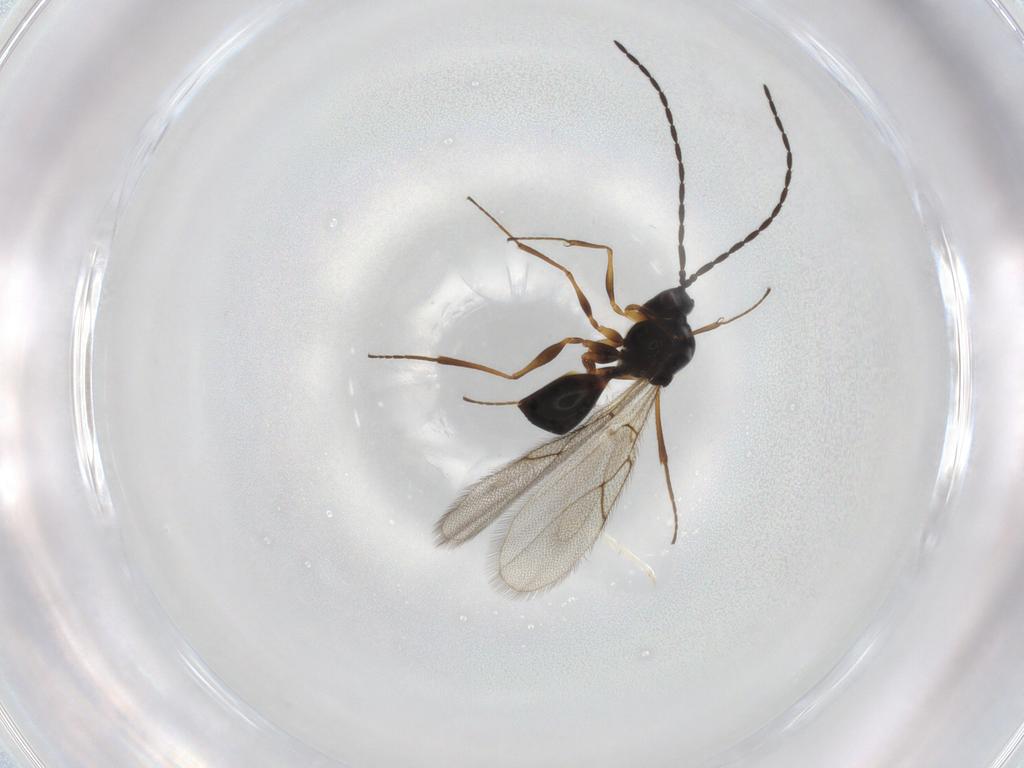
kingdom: Animalia
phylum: Arthropoda
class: Insecta
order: Hymenoptera
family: Figitidae
